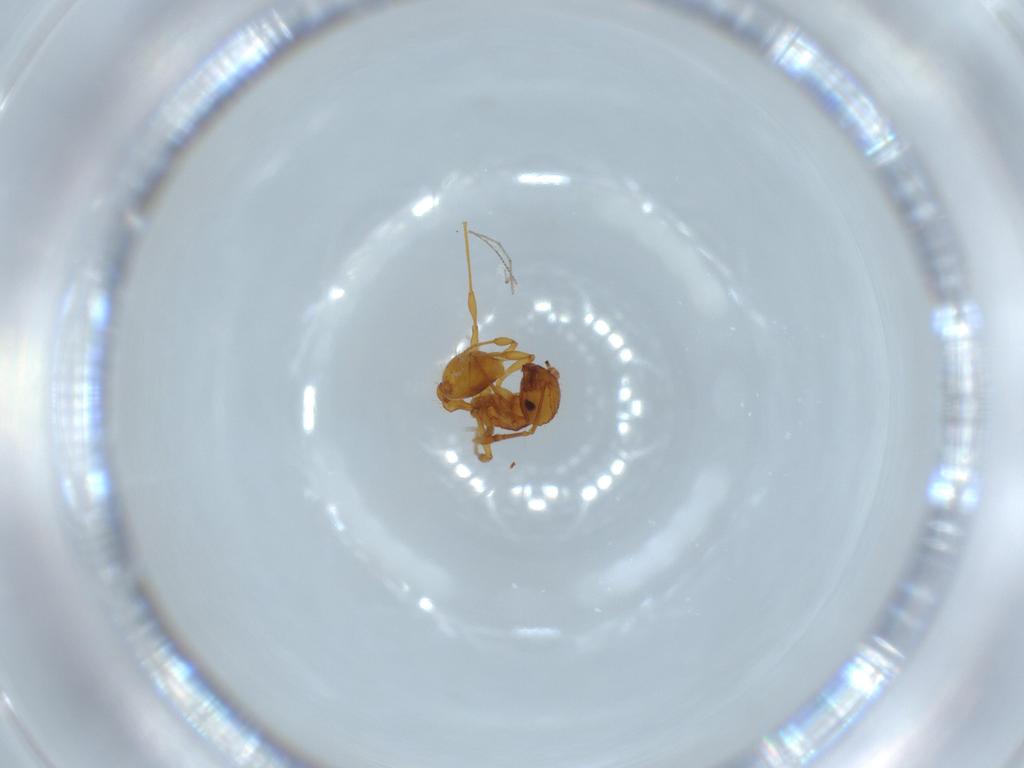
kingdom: Animalia
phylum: Arthropoda
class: Insecta
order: Hymenoptera
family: Formicidae
